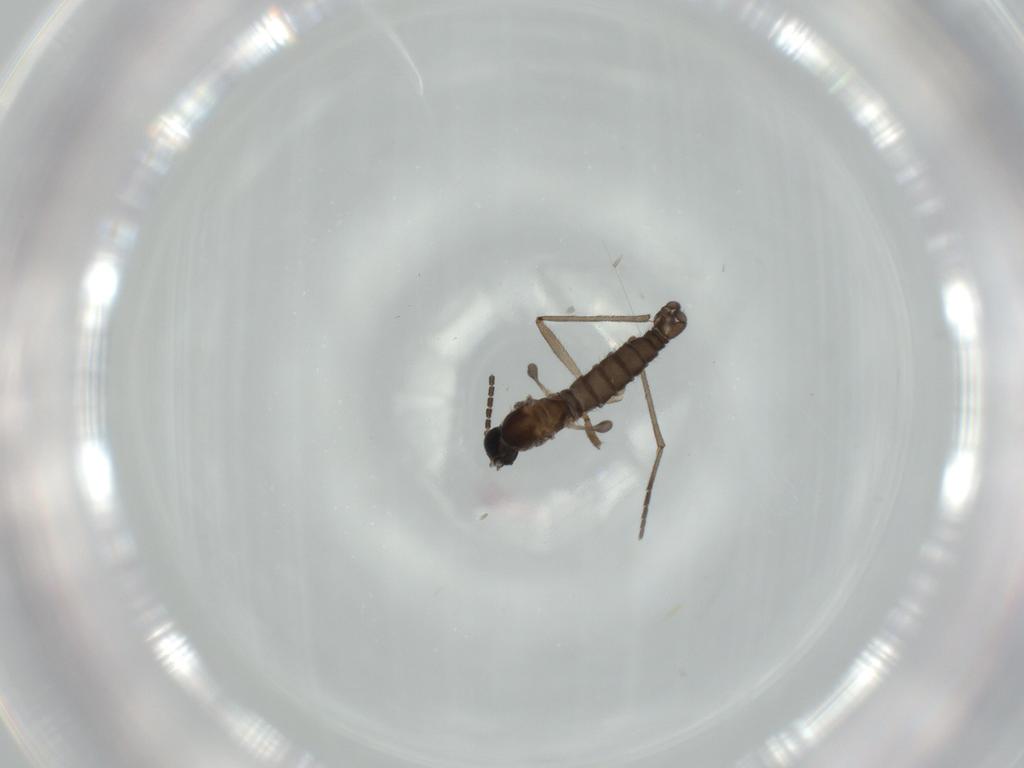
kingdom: Animalia
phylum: Arthropoda
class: Insecta
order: Diptera
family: Sciaridae
